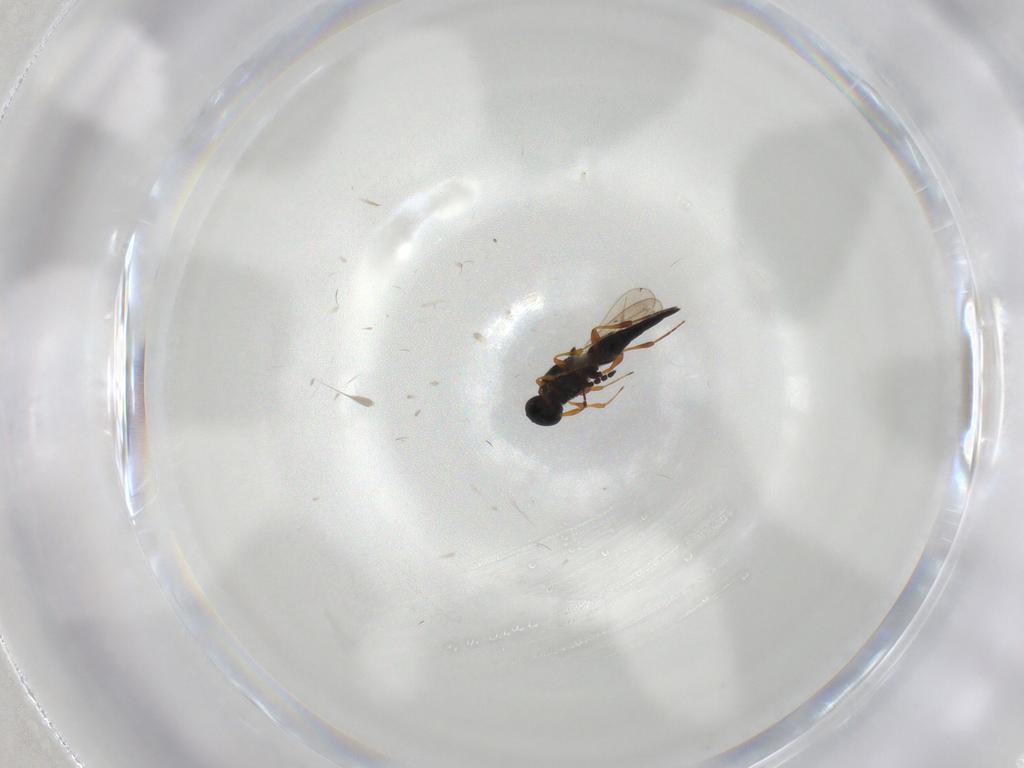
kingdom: Animalia
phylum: Arthropoda
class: Insecta
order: Hymenoptera
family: Platygastridae
